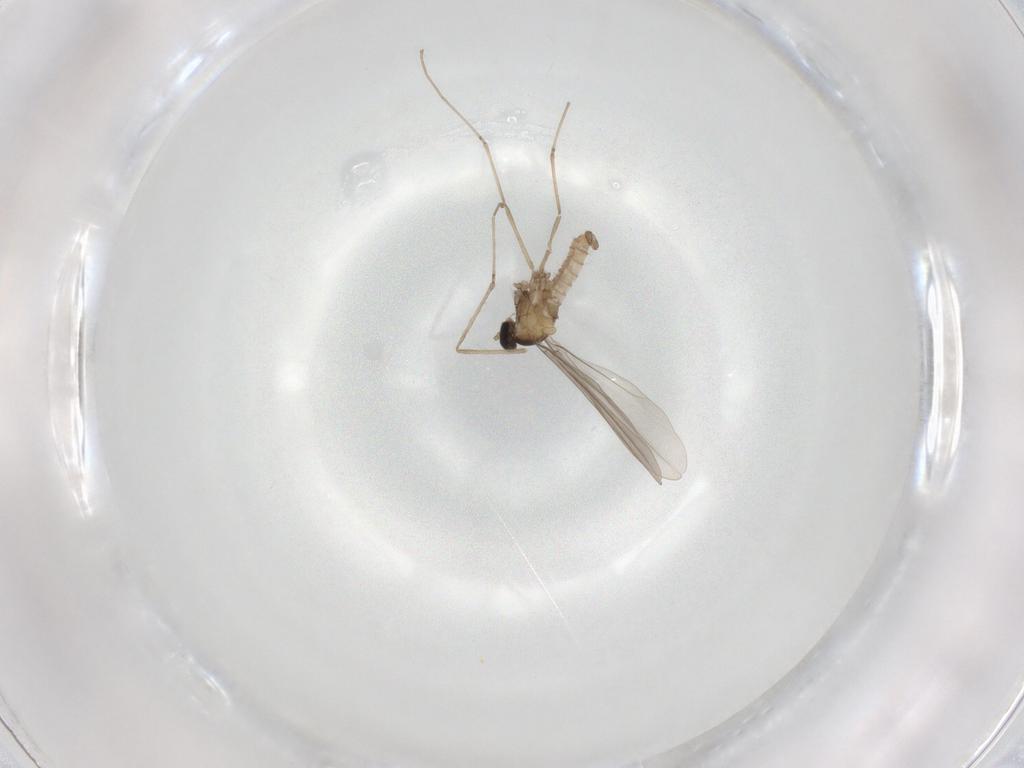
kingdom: Animalia
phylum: Arthropoda
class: Insecta
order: Diptera
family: Cecidomyiidae
